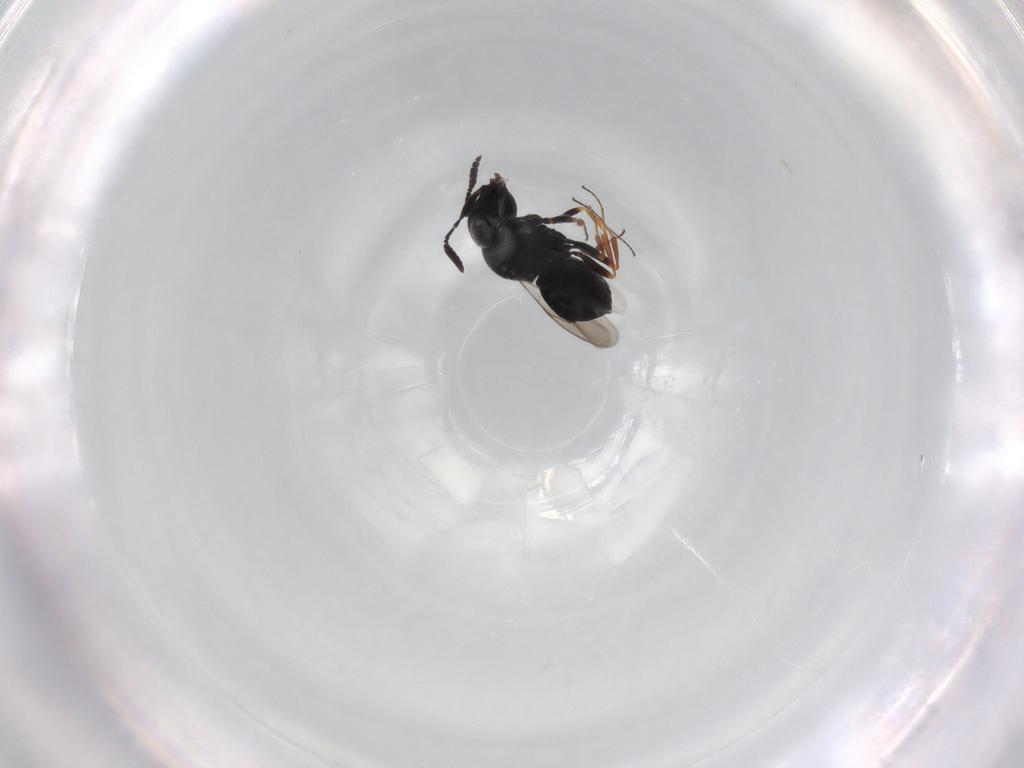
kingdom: Animalia
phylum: Arthropoda
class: Insecta
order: Hymenoptera
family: Scelionidae
